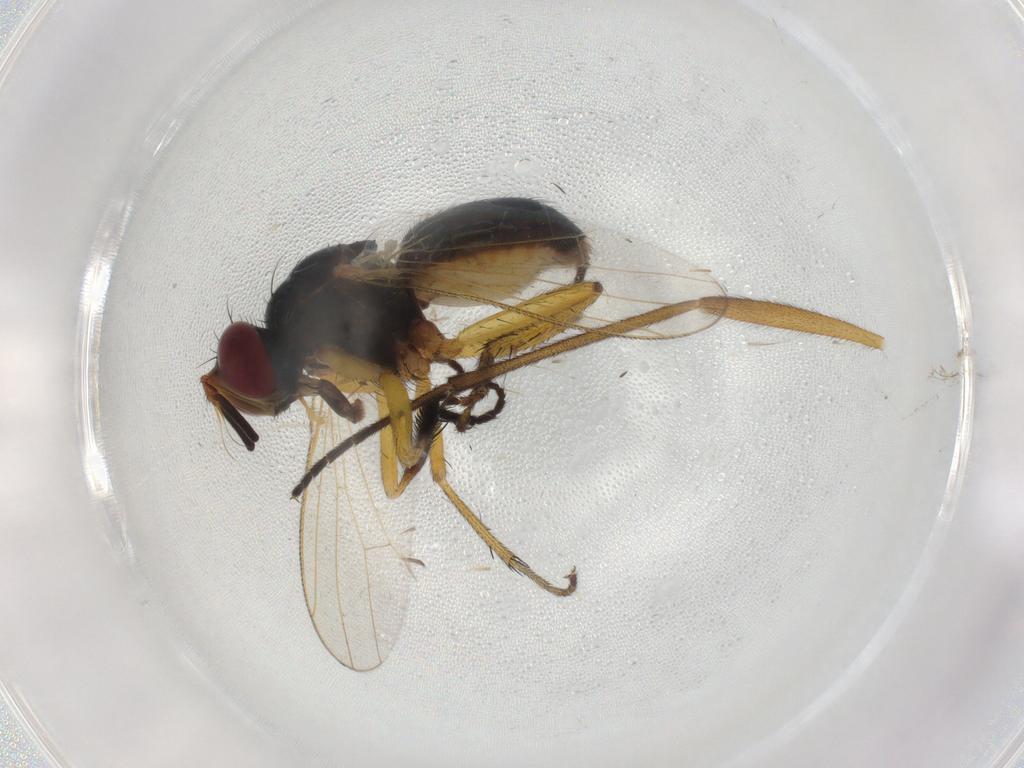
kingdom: Animalia
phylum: Arthropoda
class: Insecta
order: Diptera
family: Sciaridae
